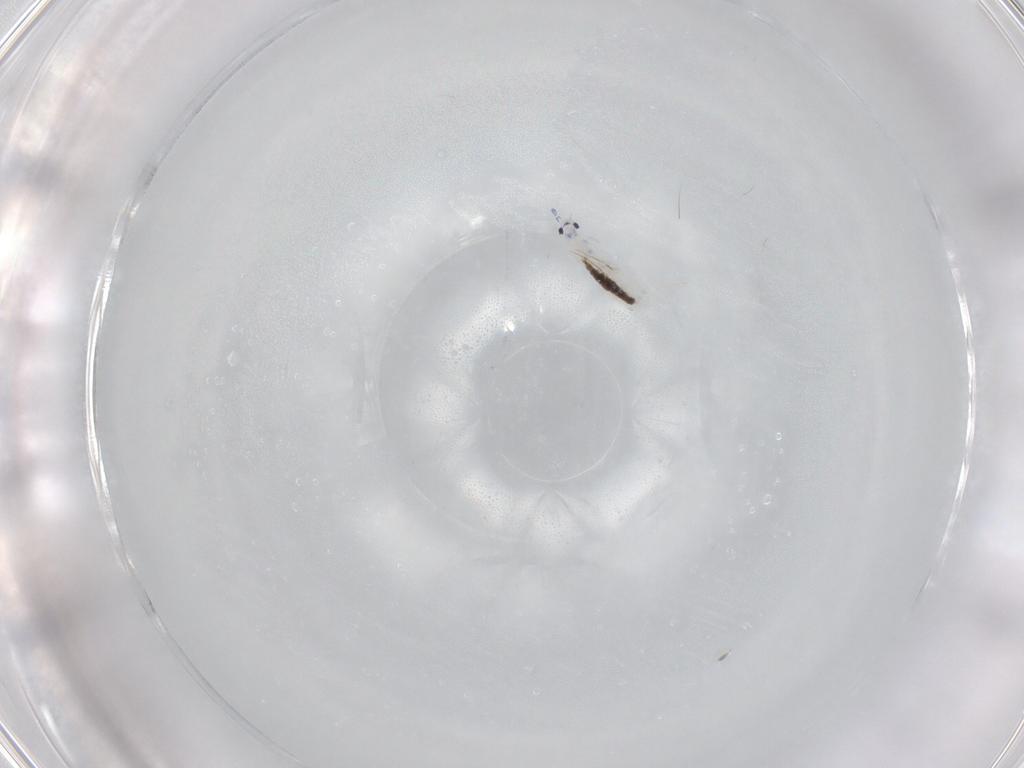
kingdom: Animalia
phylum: Arthropoda
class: Collembola
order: Entomobryomorpha
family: Entomobryidae
